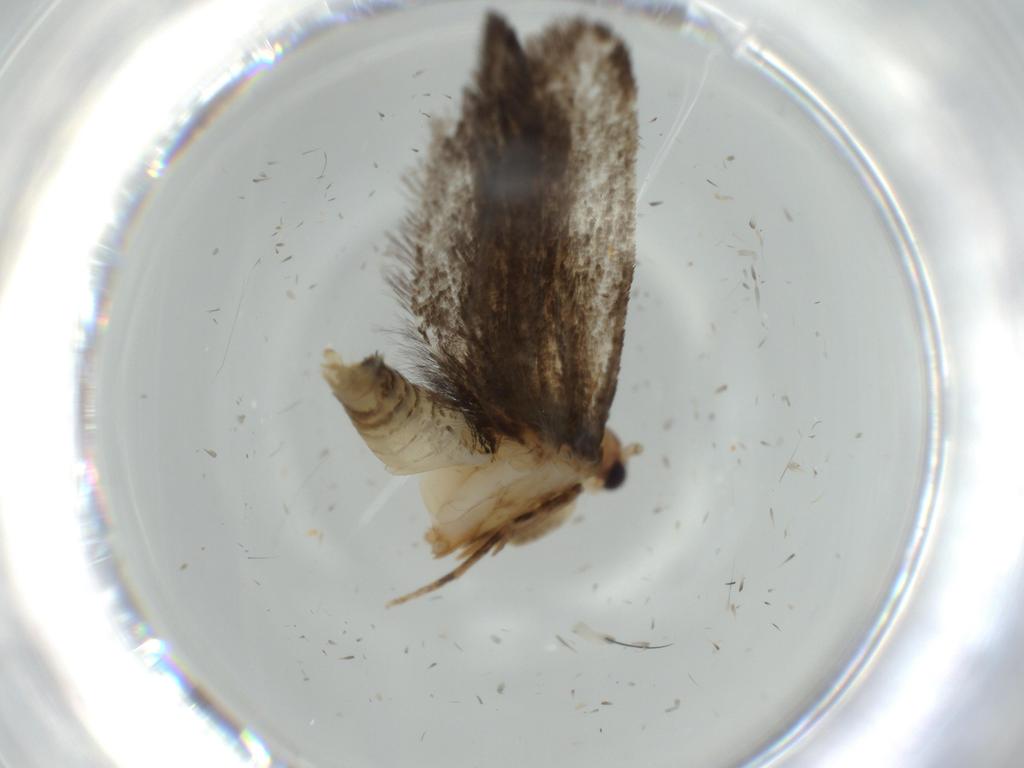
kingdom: Animalia
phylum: Arthropoda
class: Insecta
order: Lepidoptera
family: Tineidae
